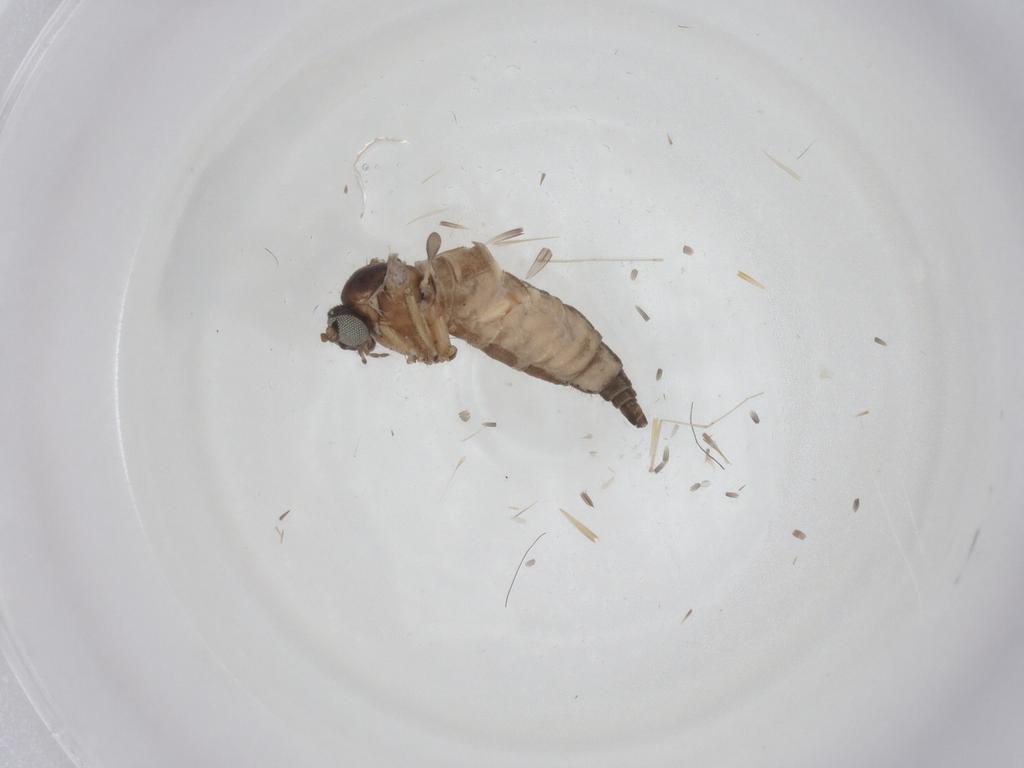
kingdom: Animalia
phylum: Arthropoda
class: Insecta
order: Diptera
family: Sciaridae
